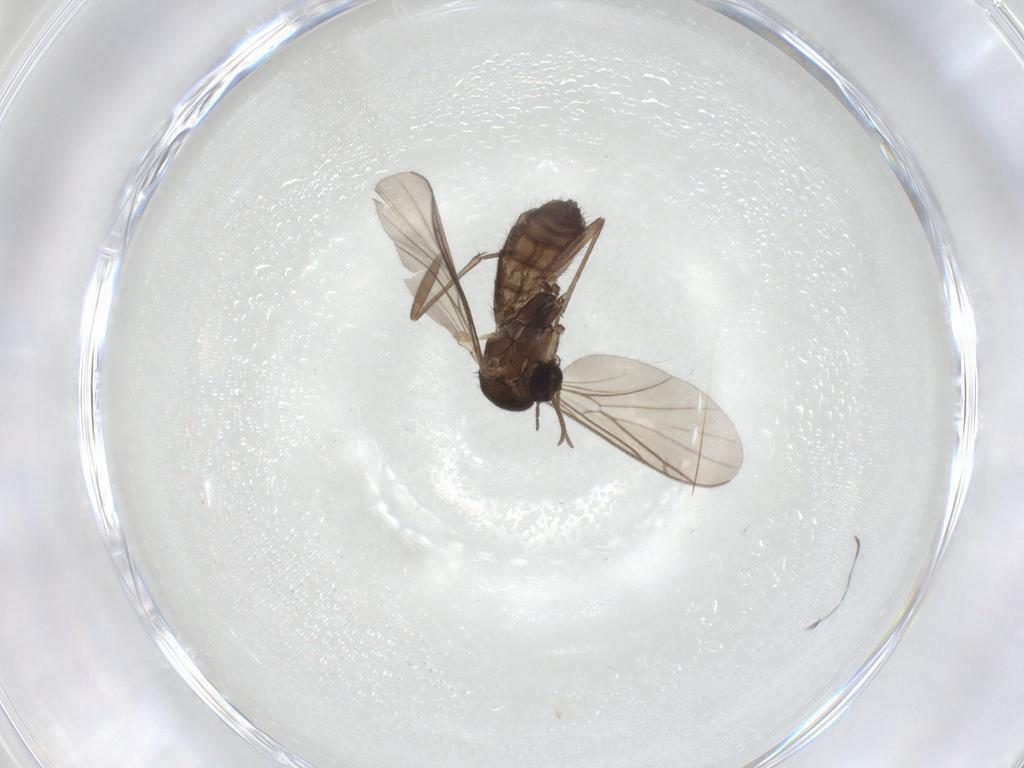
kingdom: Animalia
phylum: Arthropoda
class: Insecta
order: Diptera
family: Keroplatidae
